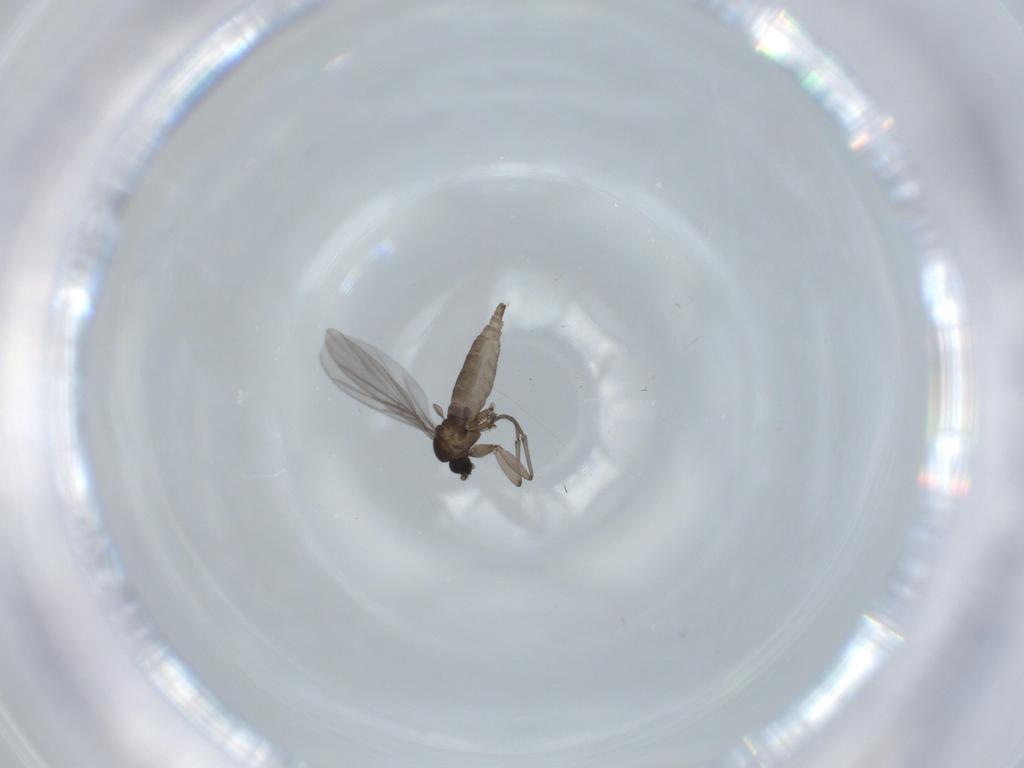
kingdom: Animalia
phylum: Arthropoda
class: Insecta
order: Diptera
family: Sciaridae
